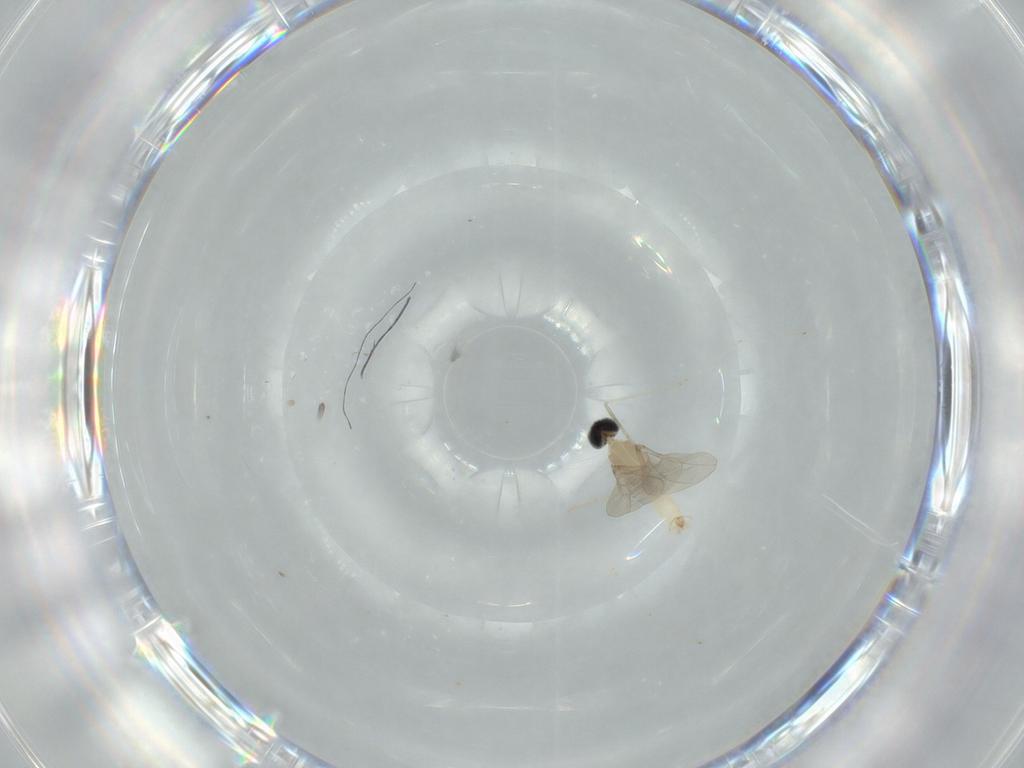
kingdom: Animalia
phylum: Arthropoda
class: Insecta
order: Diptera
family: Cecidomyiidae
